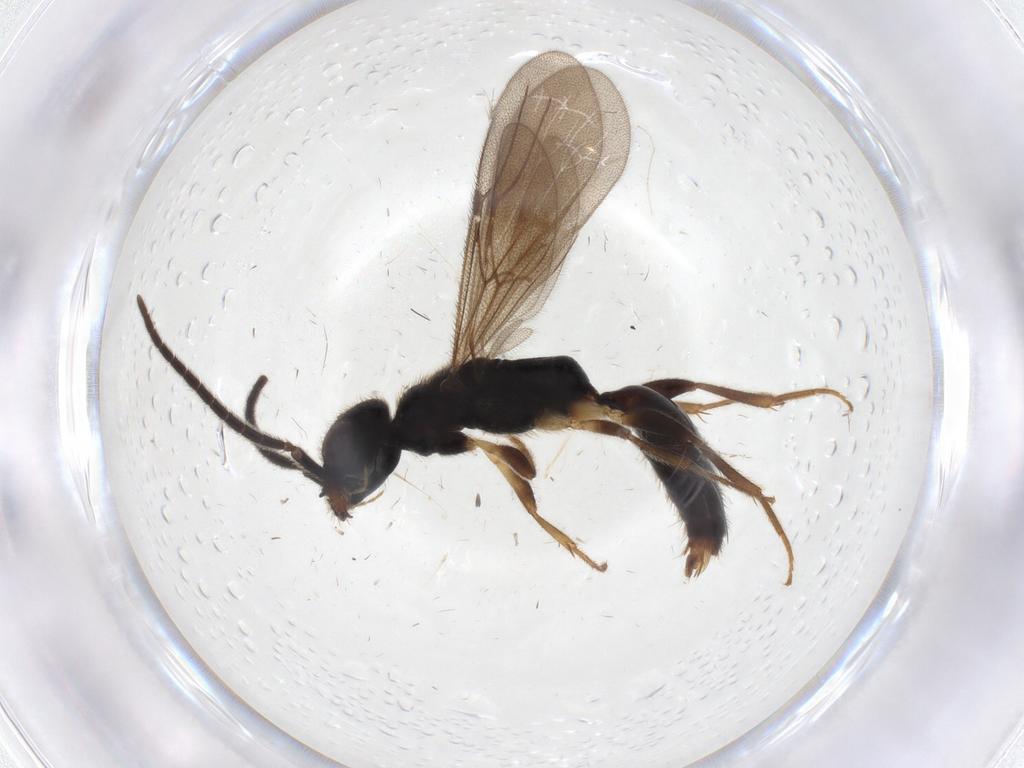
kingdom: Animalia
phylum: Arthropoda
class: Insecta
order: Hymenoptera
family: Bethylidae
